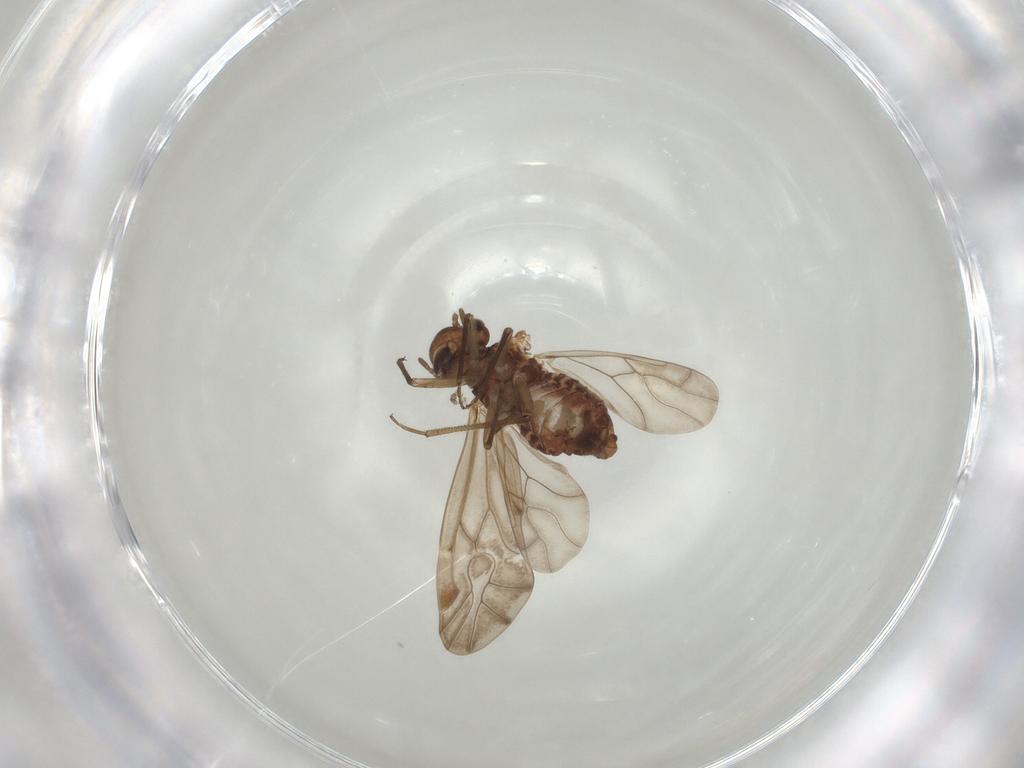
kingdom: Animalia
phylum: Arthropoda
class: Insecta
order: Psocodea
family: Peripsocidae
